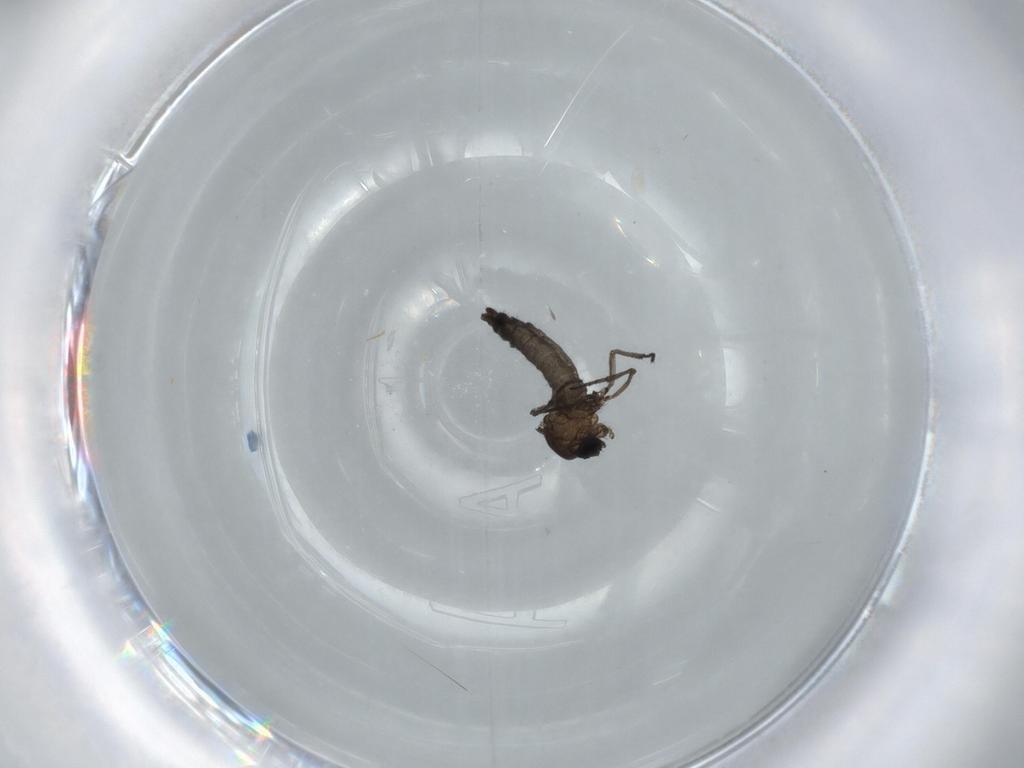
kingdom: Animalia
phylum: Arthropoda
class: Insecta
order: Diptera
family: Sciaridae
